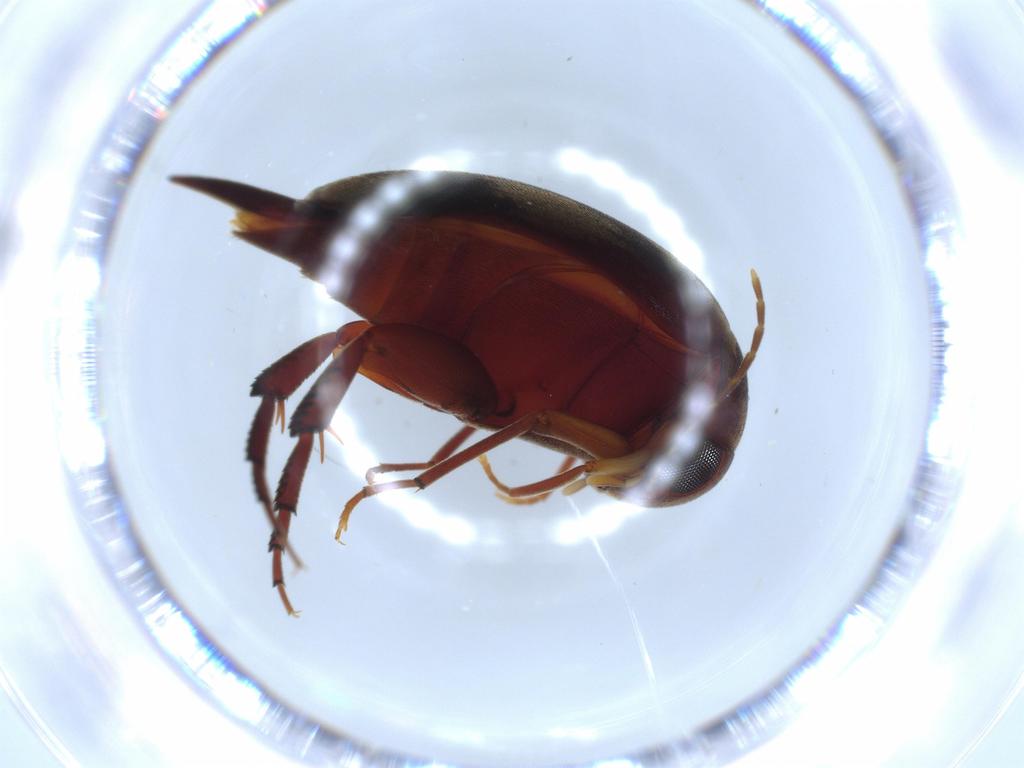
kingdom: Animalia
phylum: Arthropoda
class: Insecta
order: Coleoptera
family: Mordellidae
